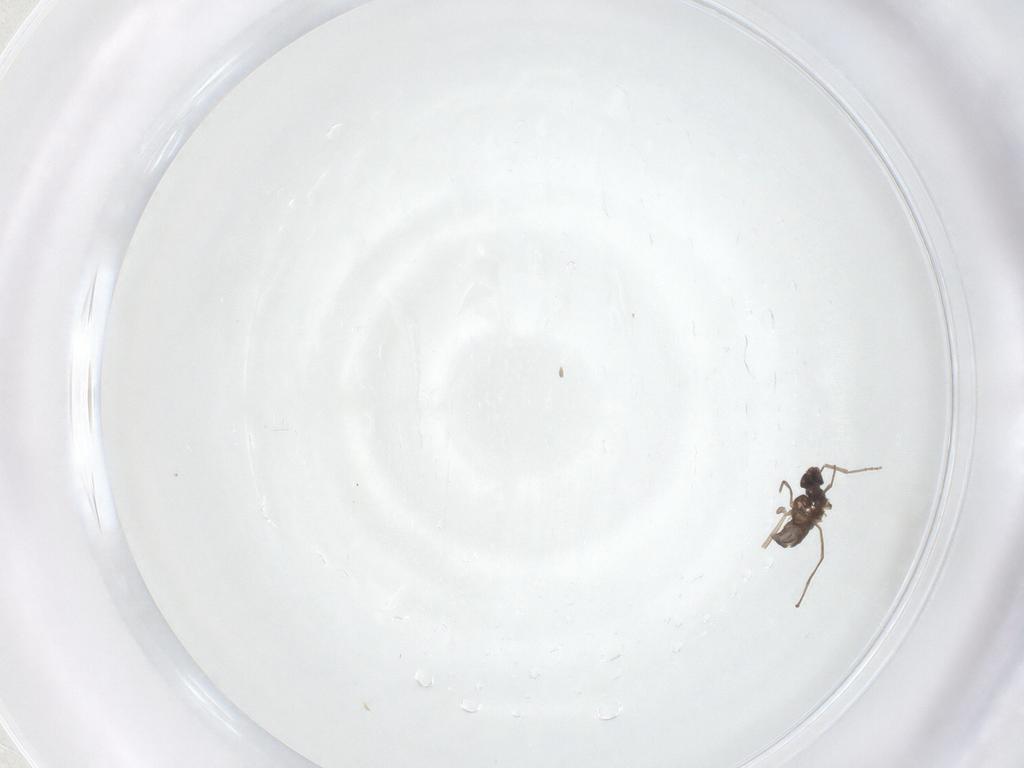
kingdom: Animalia
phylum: Arthropoda
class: Insecta
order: Diptera
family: Cecidomyiidae
